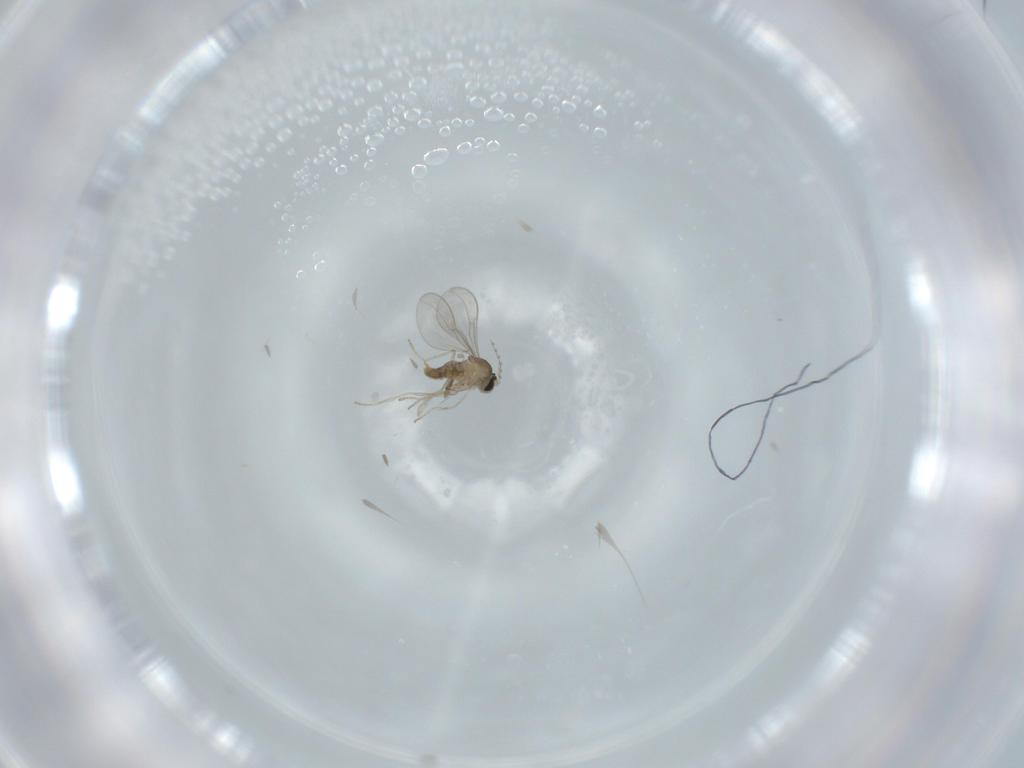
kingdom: Animalia
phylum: Arthropoda
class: Insecta
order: Diptera
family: Cecidomyiidae
